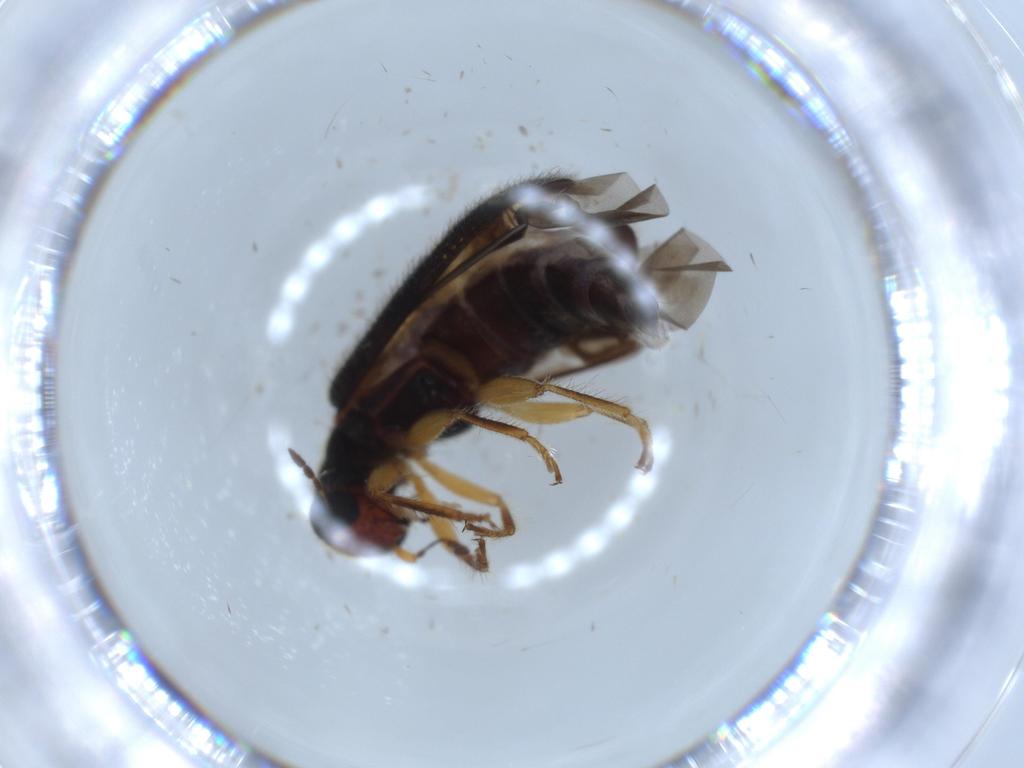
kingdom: Animalia
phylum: Arthropoda
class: Insecta
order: Coleoptera
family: Cleridae
